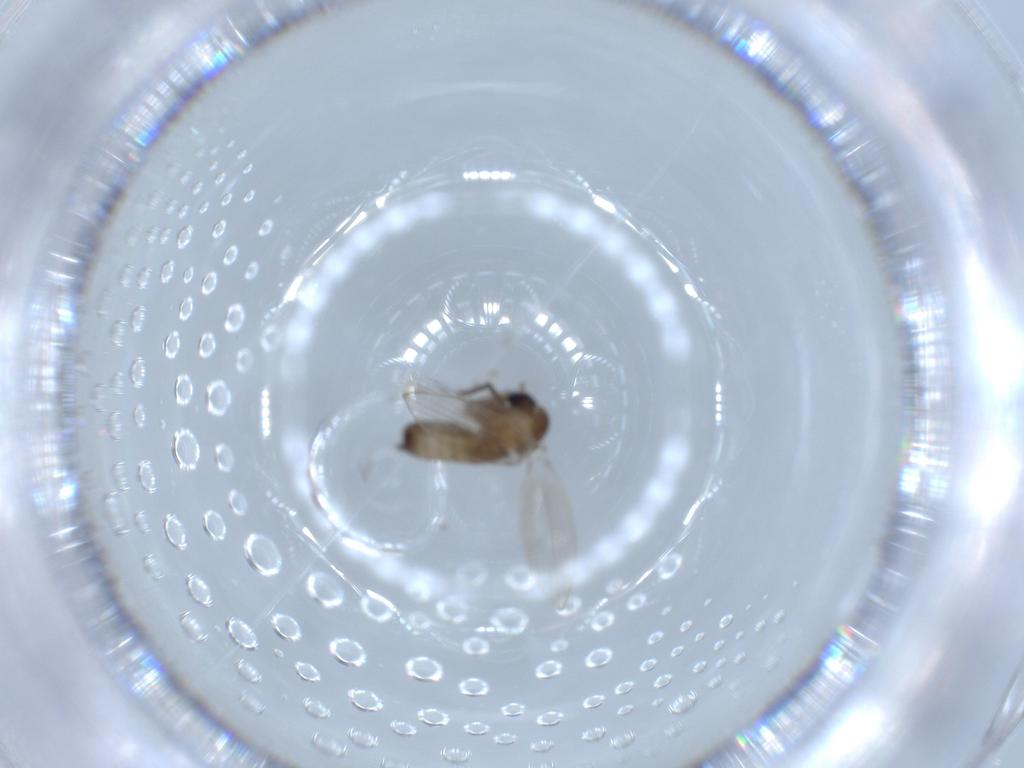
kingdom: Animalia
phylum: Arthropoda
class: Insecta
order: Diptera
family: Psychodidae
